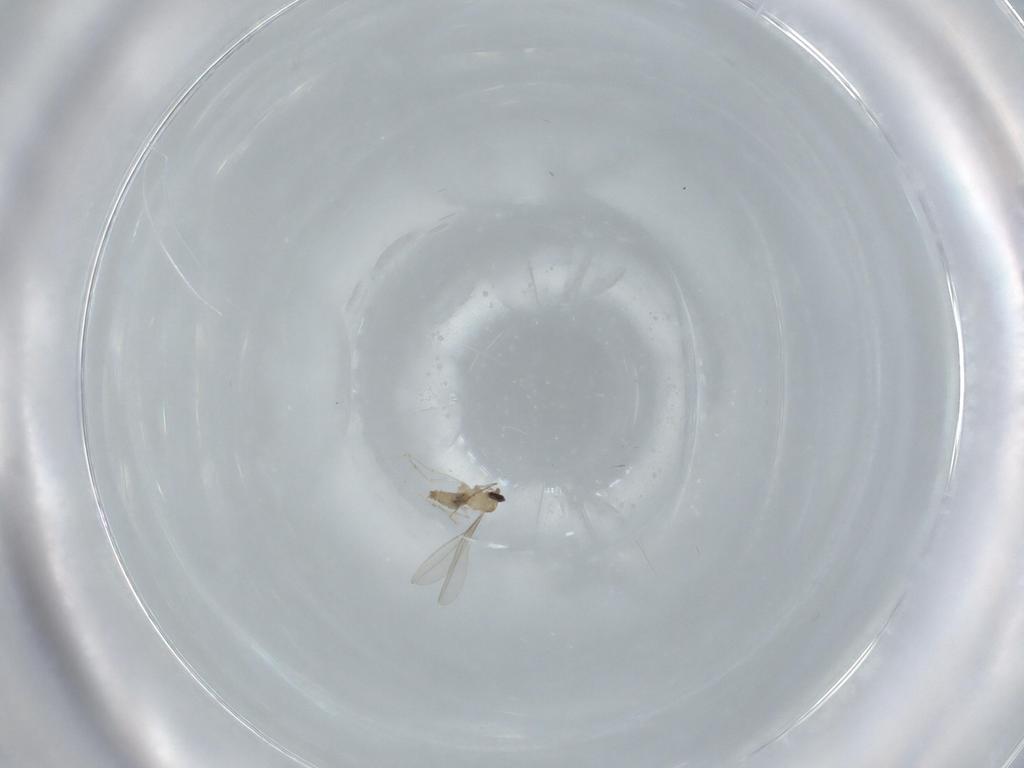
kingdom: Animalia
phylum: Arthropoda
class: Insecta
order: Diptera
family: Cecidomyiidae
